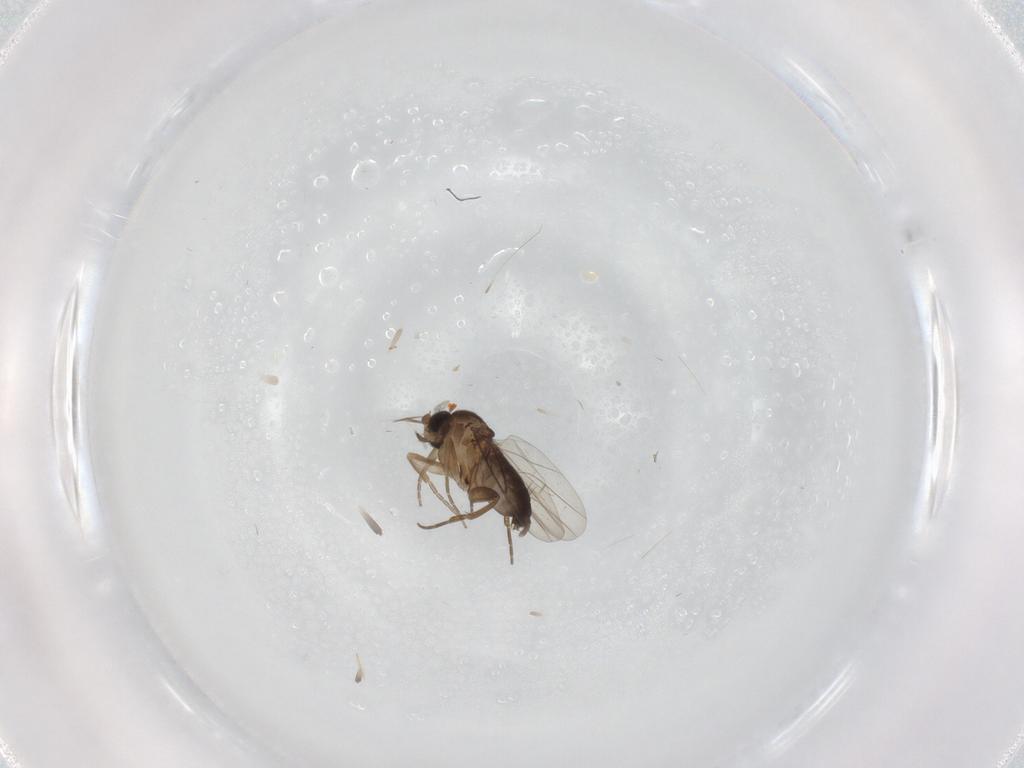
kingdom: Animalia
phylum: Arthropoda
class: Insecta
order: Diptera
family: Phoridae
